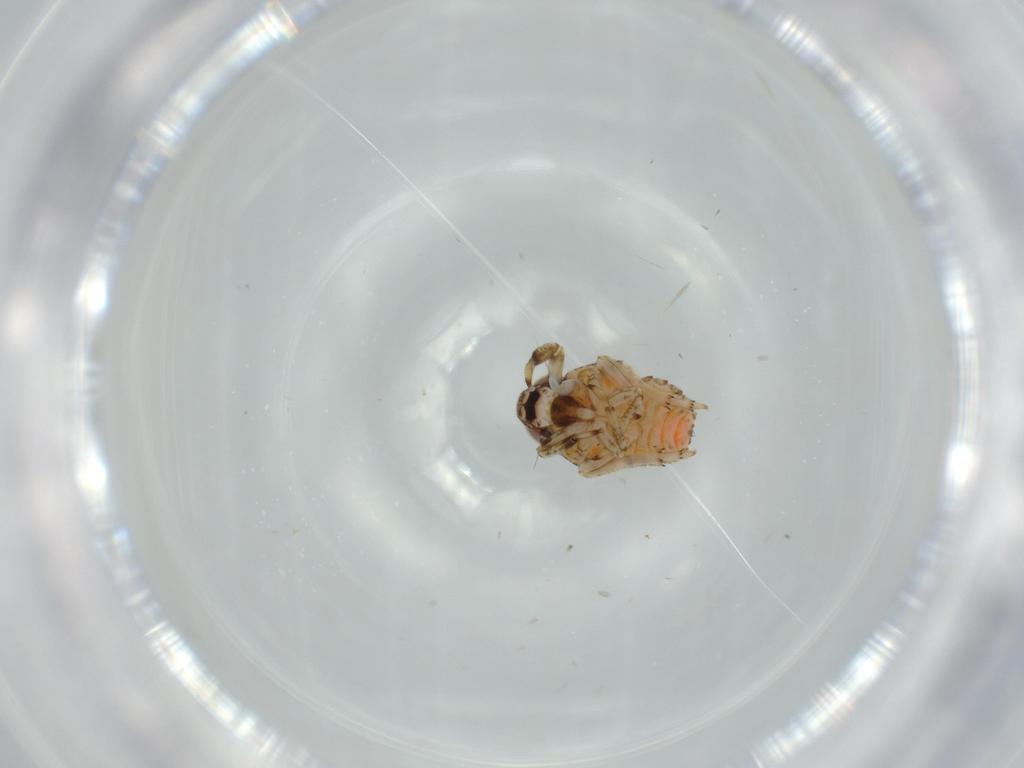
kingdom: Animalia
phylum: Arthropoda
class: Insecta
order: Hemiptera
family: Issidae
